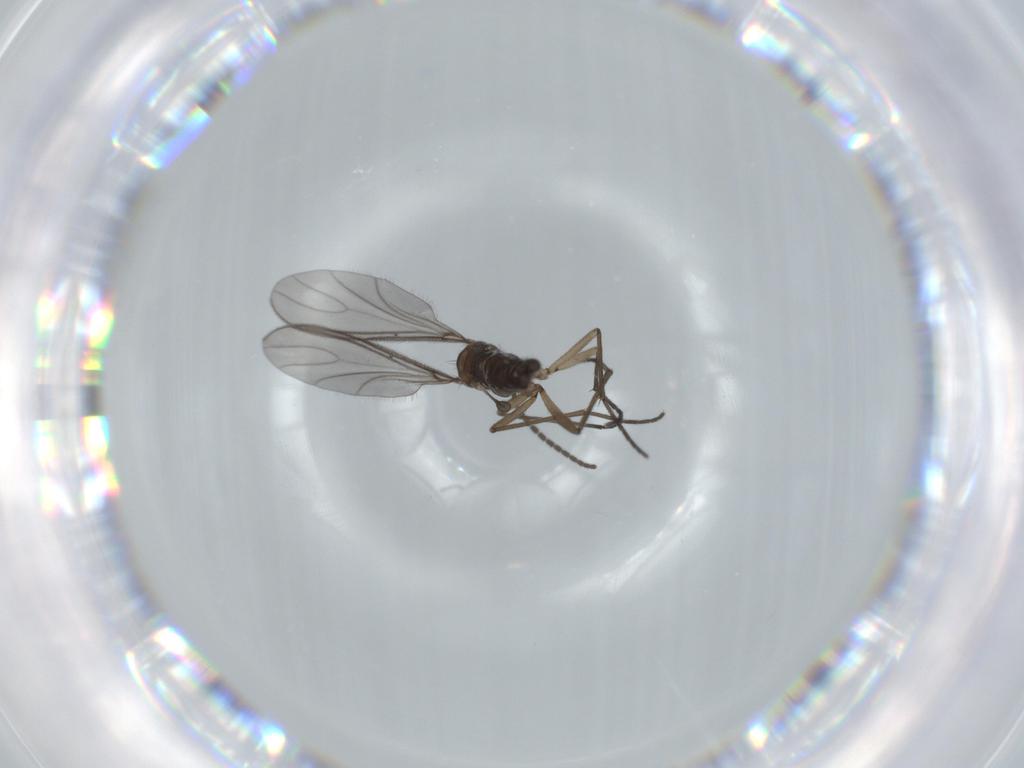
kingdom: Animalia
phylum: Arthropoda
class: Insecta
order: Diptera
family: Sciaridae
